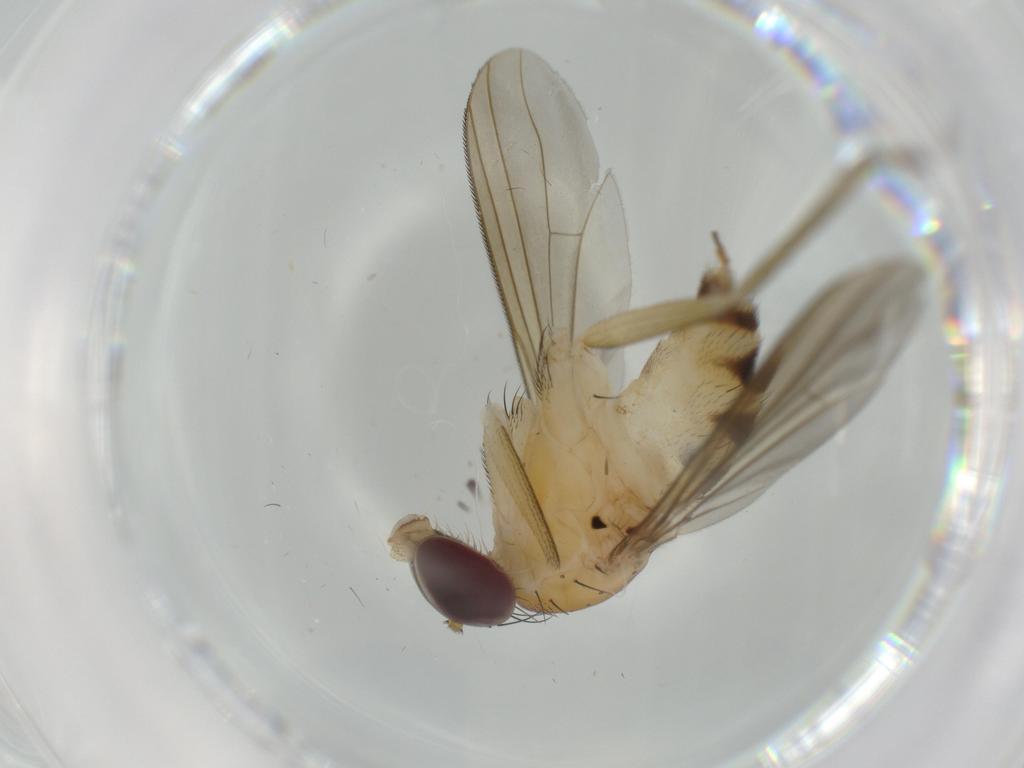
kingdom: Animalia
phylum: Arthropoda
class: Insecta
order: Diptera
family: Dolichopodidae
